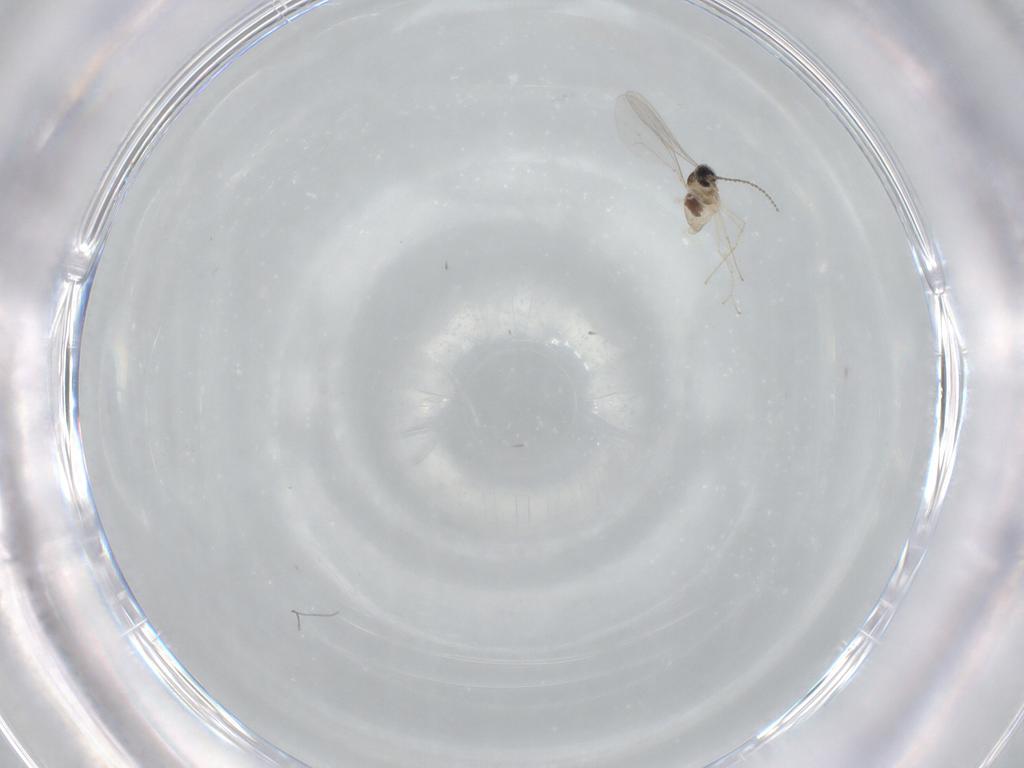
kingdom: Animalia
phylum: Arthropoda
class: Insecta
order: Diptera
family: Cecidomyiidae
